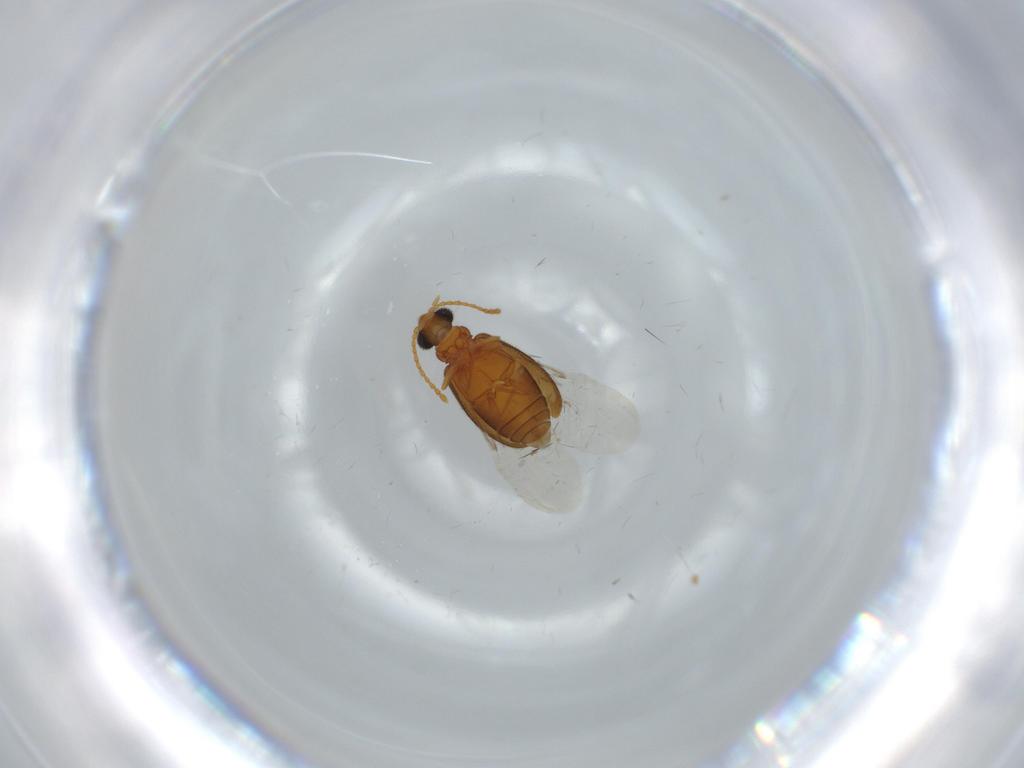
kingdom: Animalia
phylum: Arthropoda
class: Insecta
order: Coleoptera
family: Aderidae
